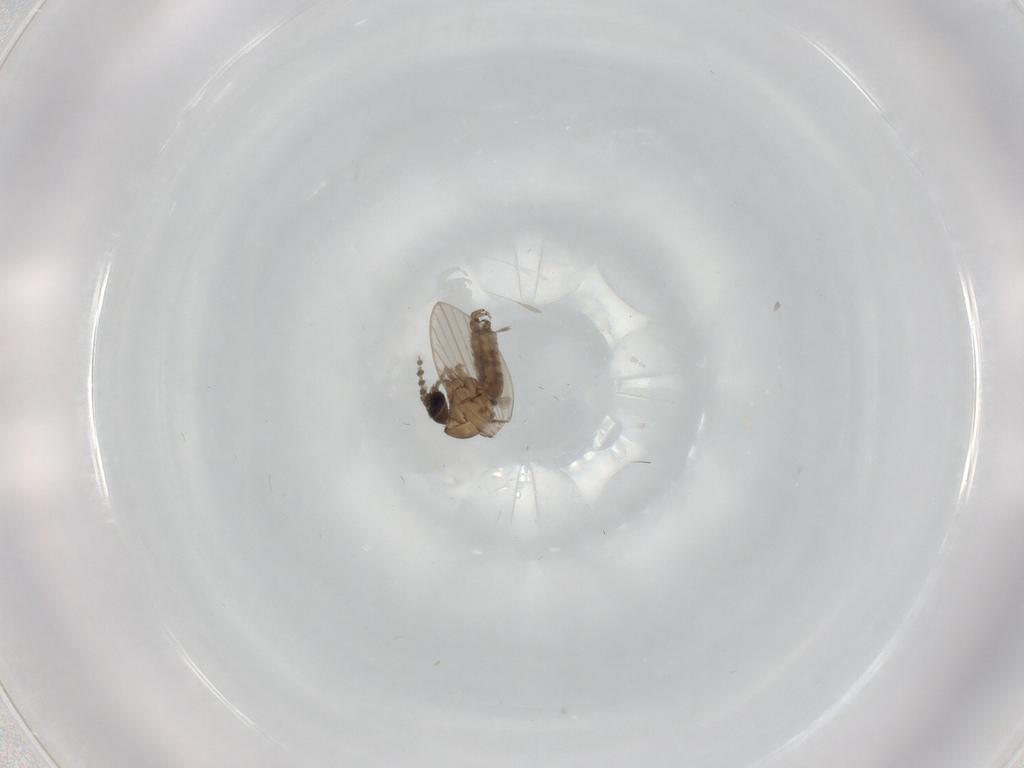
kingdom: Animalia
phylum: Arthropoda
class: Insecta
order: Diptera
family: Psychodidae
